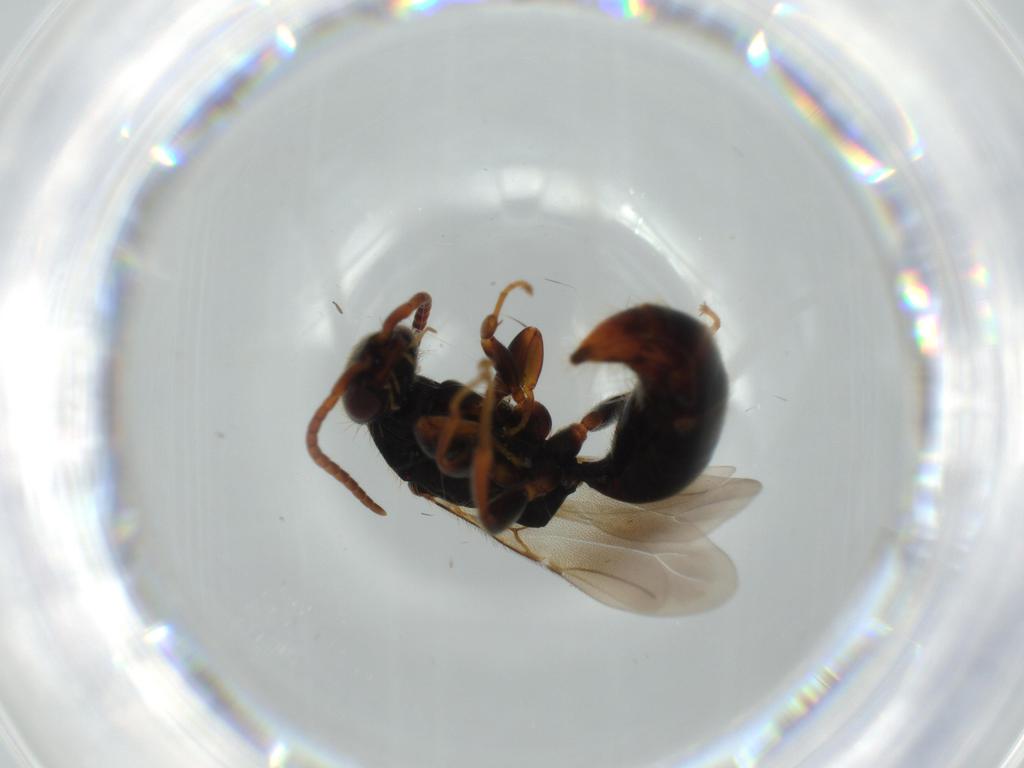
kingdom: Animalia
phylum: Arthropoda
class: Insecta
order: Hymenoptera
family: Bethylidae
